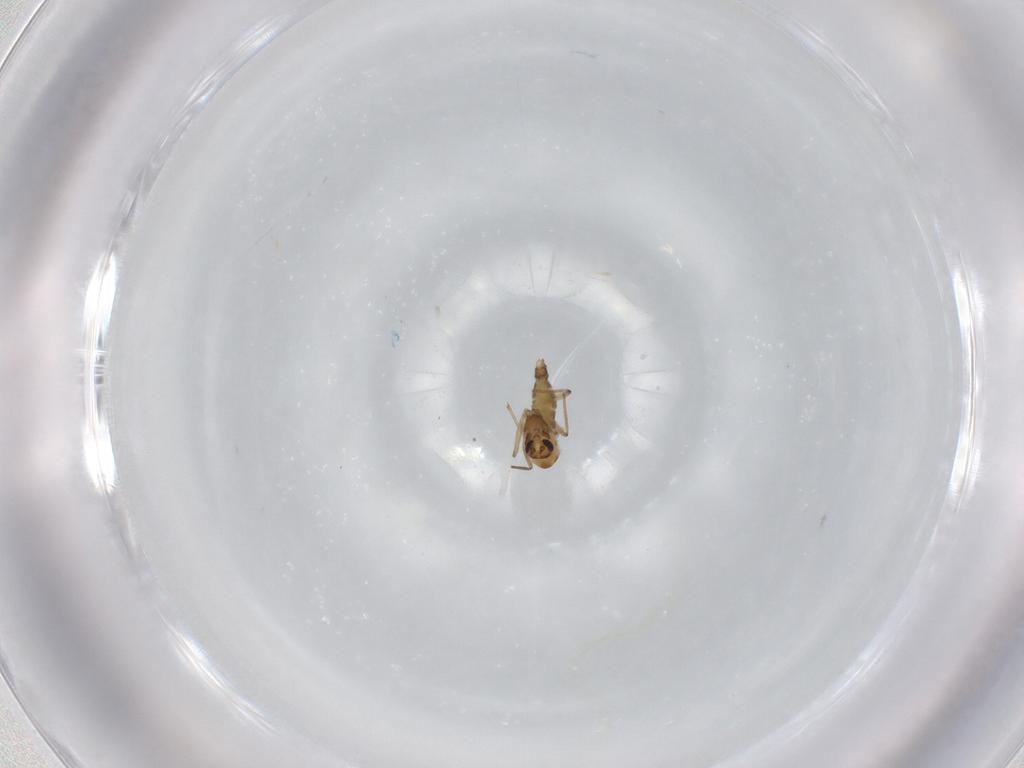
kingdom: Animalia
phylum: Arthropoda
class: Insecta
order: Diptera
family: Chironomidae
